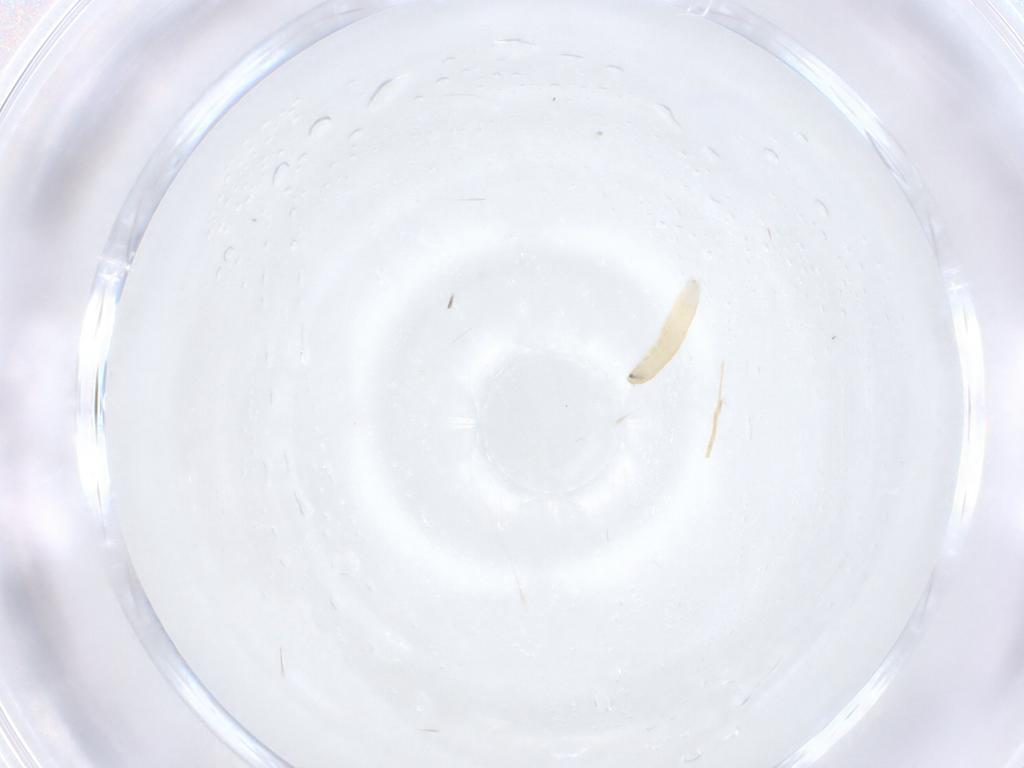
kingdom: Animalia
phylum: Arthropoda
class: Insecta
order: Diptera
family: Tachinidae
